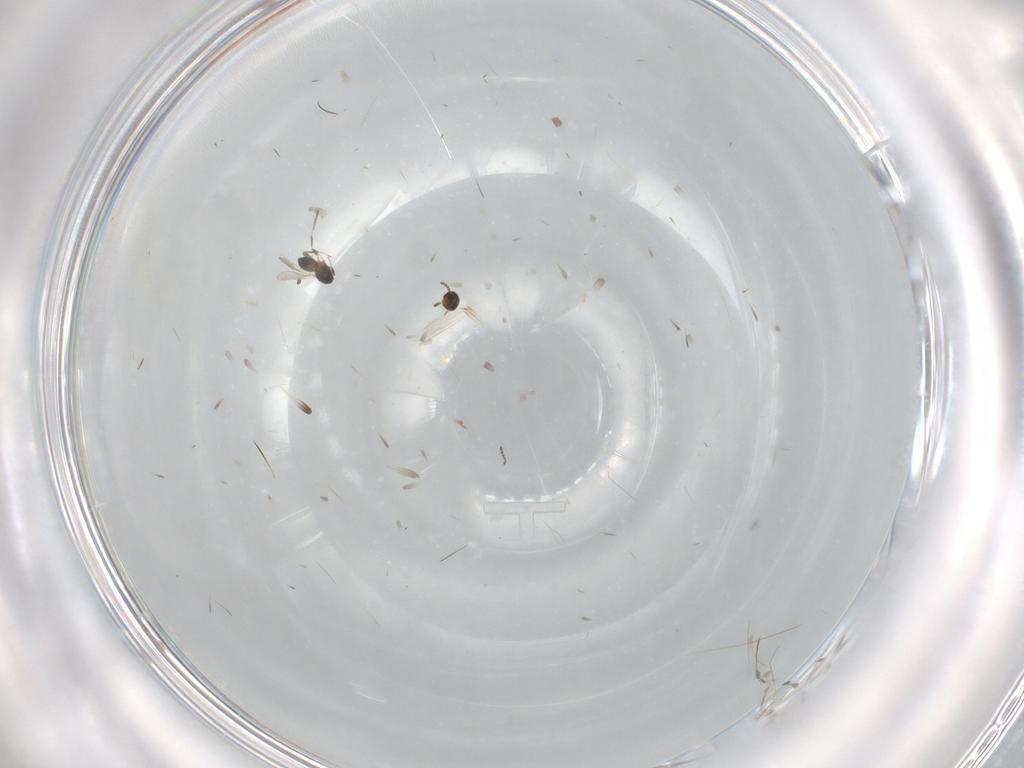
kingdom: Animalia
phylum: Arthropoda
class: Insecta
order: Hymenoptera
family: Platygastridae
